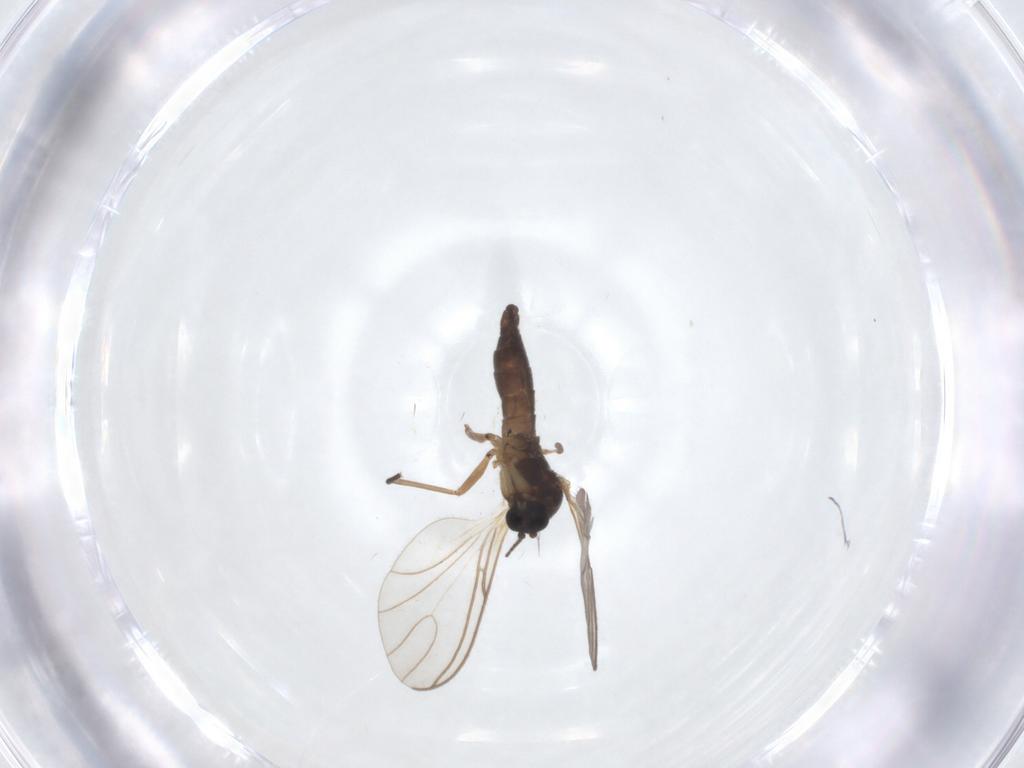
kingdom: Animalia
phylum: Arthropoda
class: Insecta
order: Diptera
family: Sciaridae
